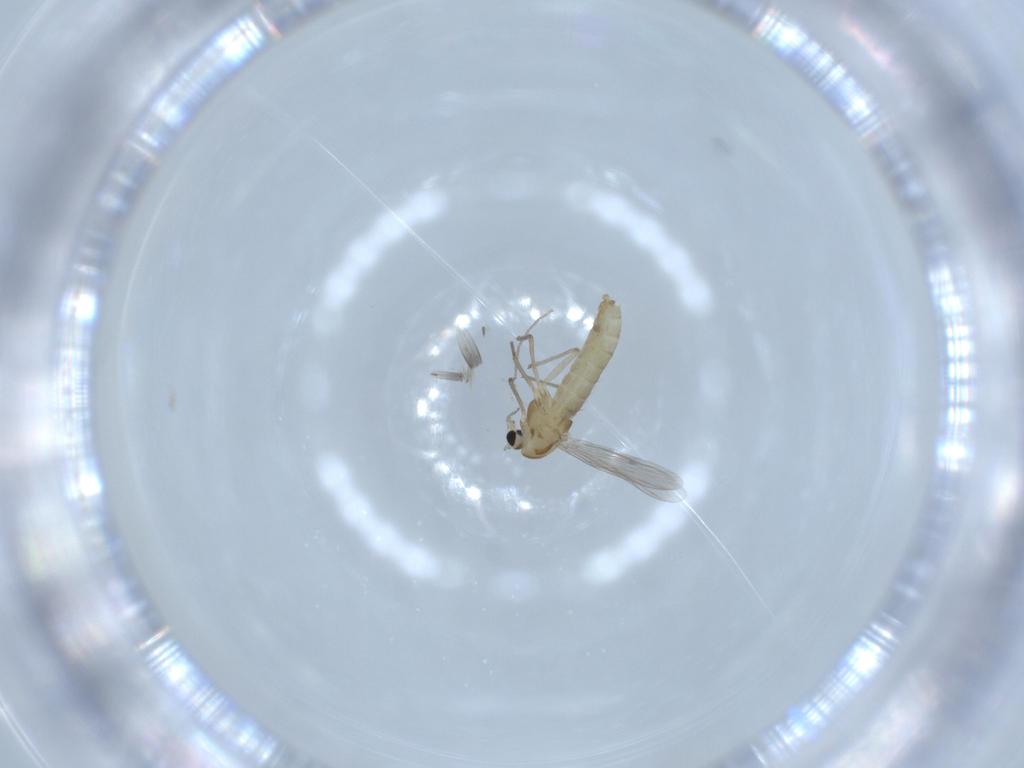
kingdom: Animalia
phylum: Arthropoda
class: Insecta
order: Diptera
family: Chironomidae
